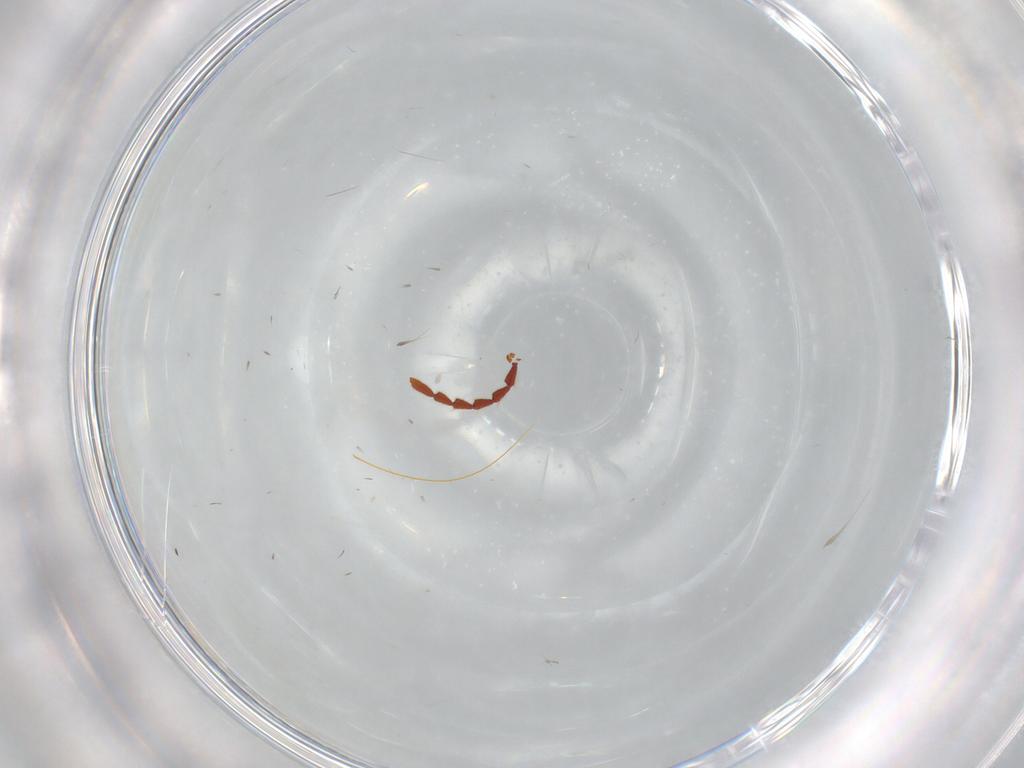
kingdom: Animalia
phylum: Arthropoda
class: Insecta
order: Coleoptera
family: Ptinidae
